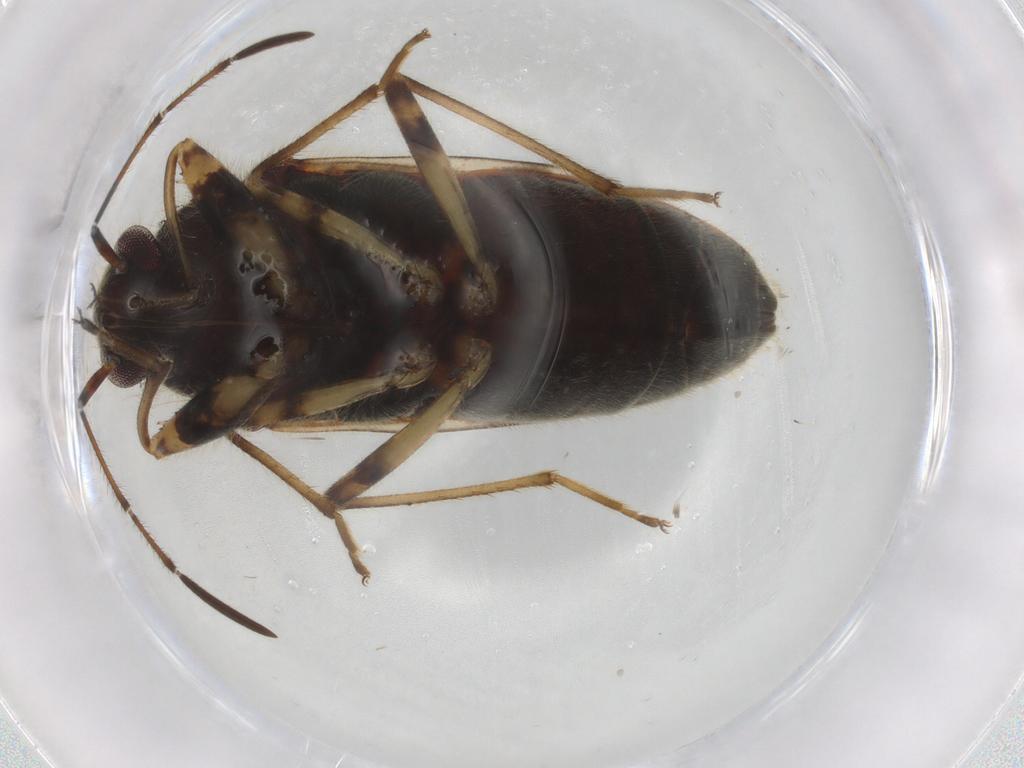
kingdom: Animalia
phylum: Arthropoda
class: Insecta
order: Hemiptera
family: Rhyparochromidae
